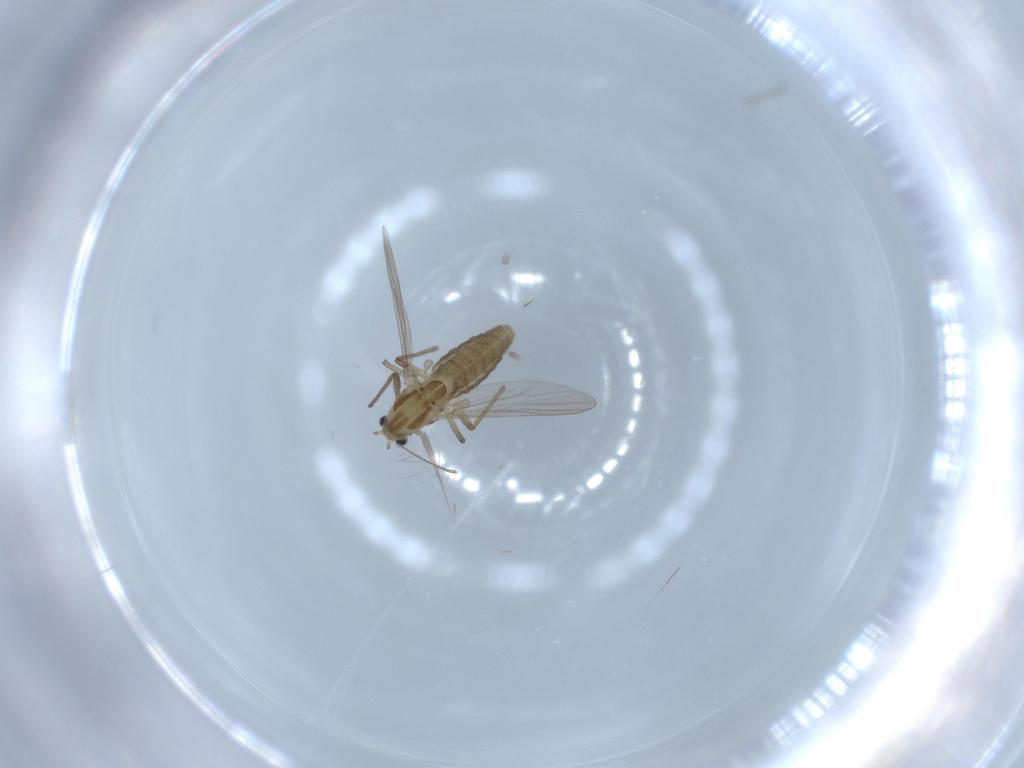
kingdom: Animalia
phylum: Arthropoda
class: Insecta
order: Diptera
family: Chironomidae
